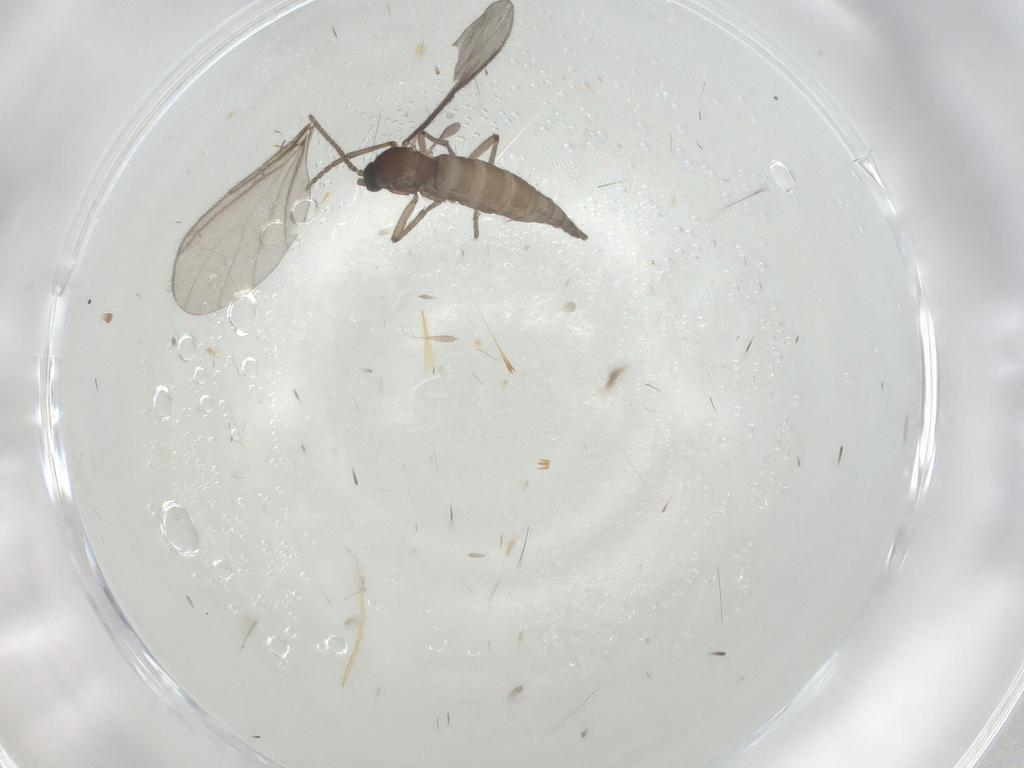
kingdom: Animalia
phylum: Arthropoda
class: Insecta
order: Diptera
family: Sciaridae
